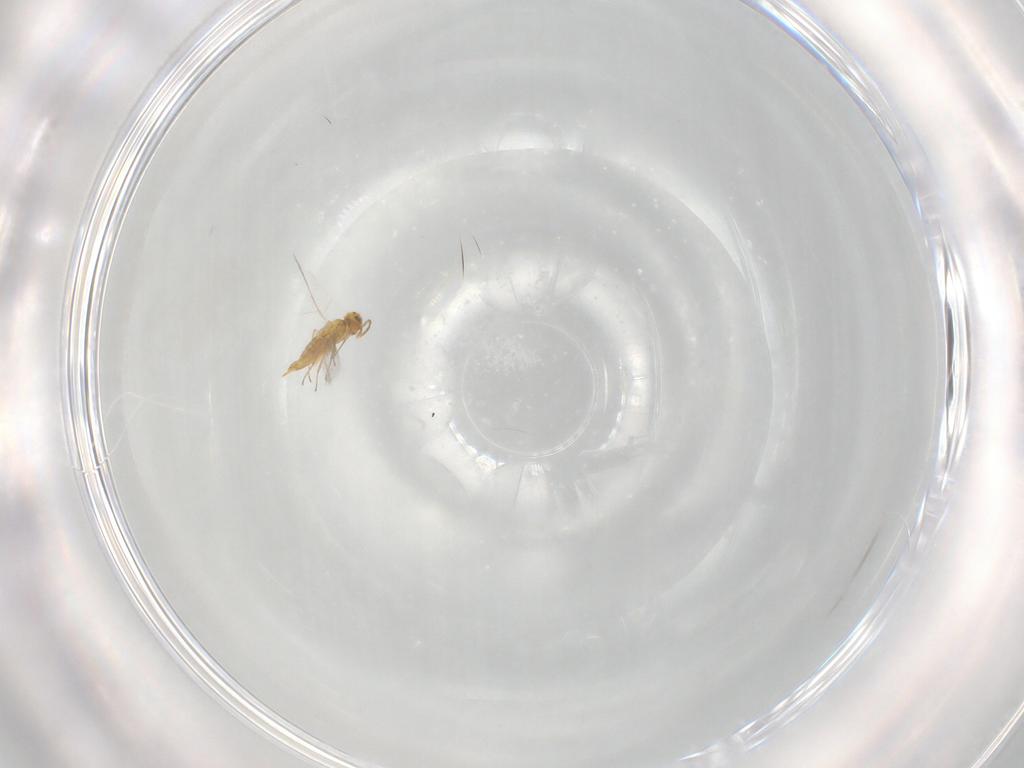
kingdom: Animalia
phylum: Arthropoda
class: Insecta
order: Hymenoptera
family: Aphelinidae
